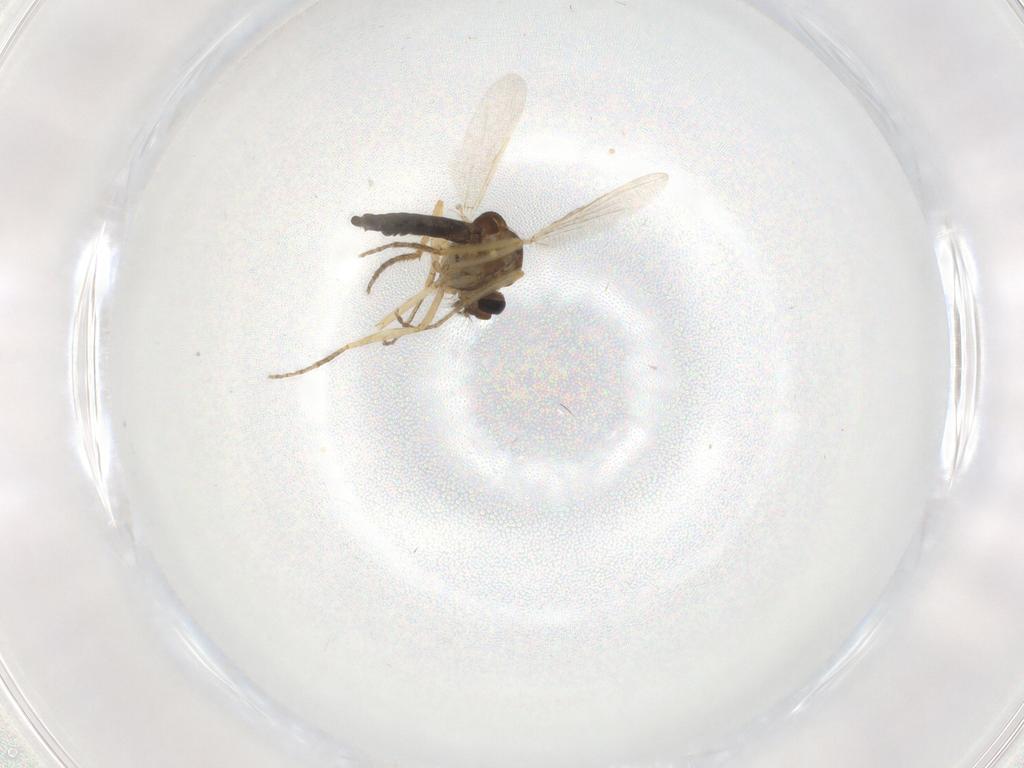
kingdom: Animalia
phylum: Arthropoda
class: Insecta
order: Diptera
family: Ceratopogonidae
